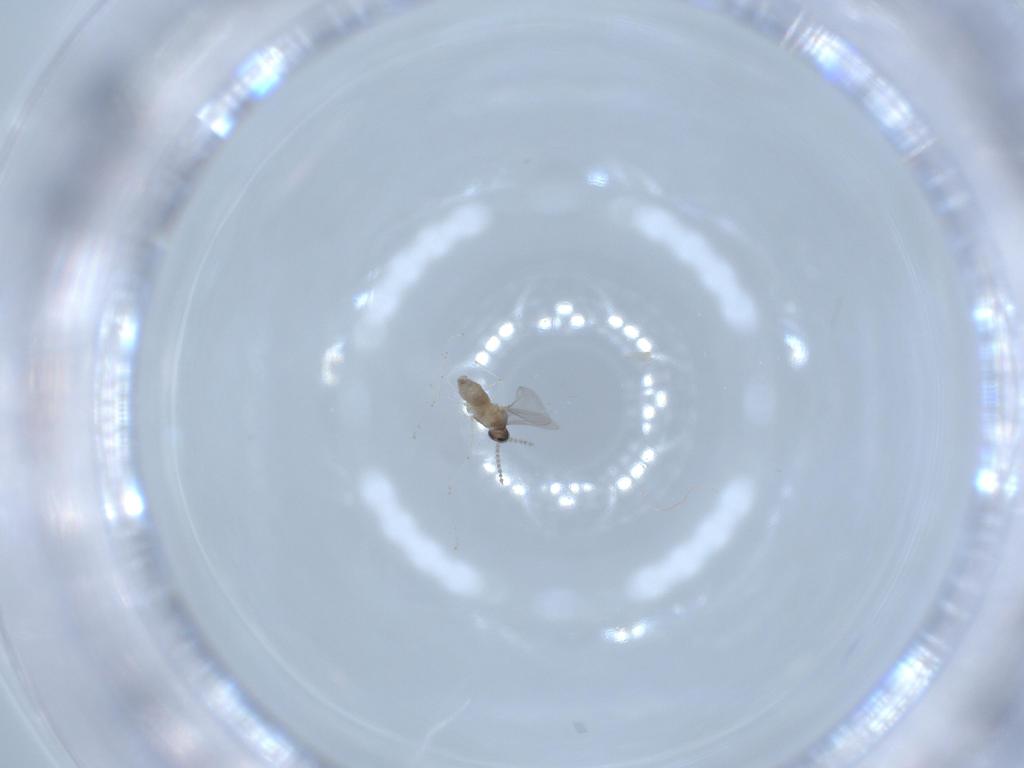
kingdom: Animalia
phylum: Arthropoda
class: Insecta
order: Diptera
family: Cecidomyiidae
